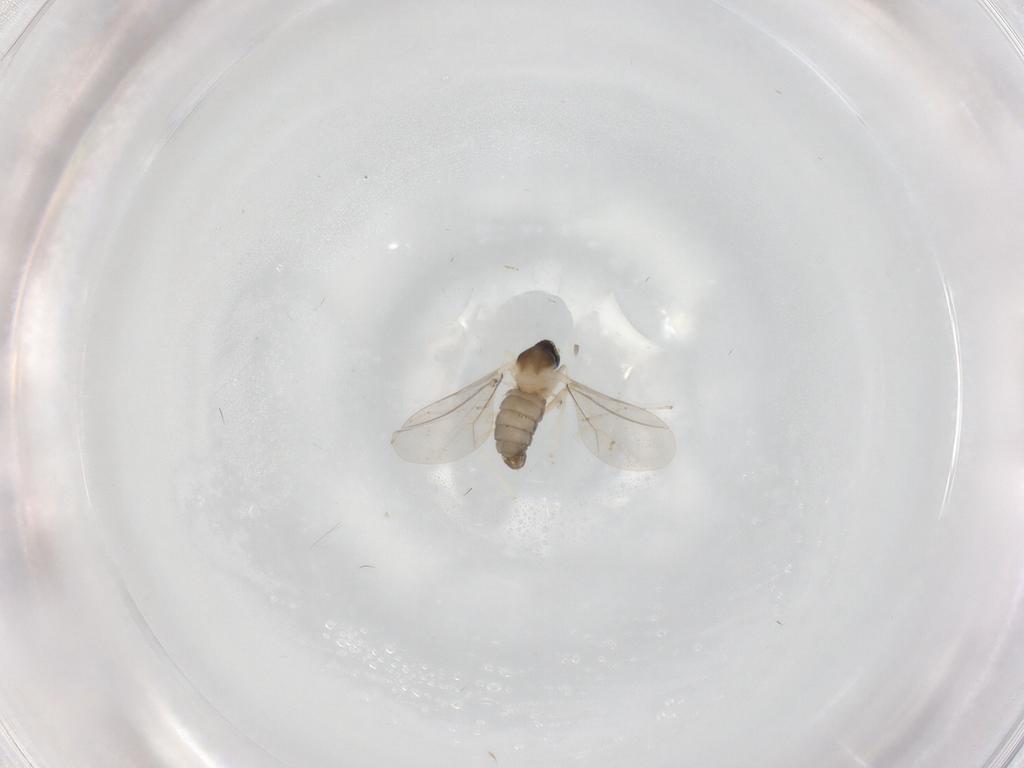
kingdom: Animalia
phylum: Arthropoda
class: Insecta
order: Diptera
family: Cecidomyiidae
